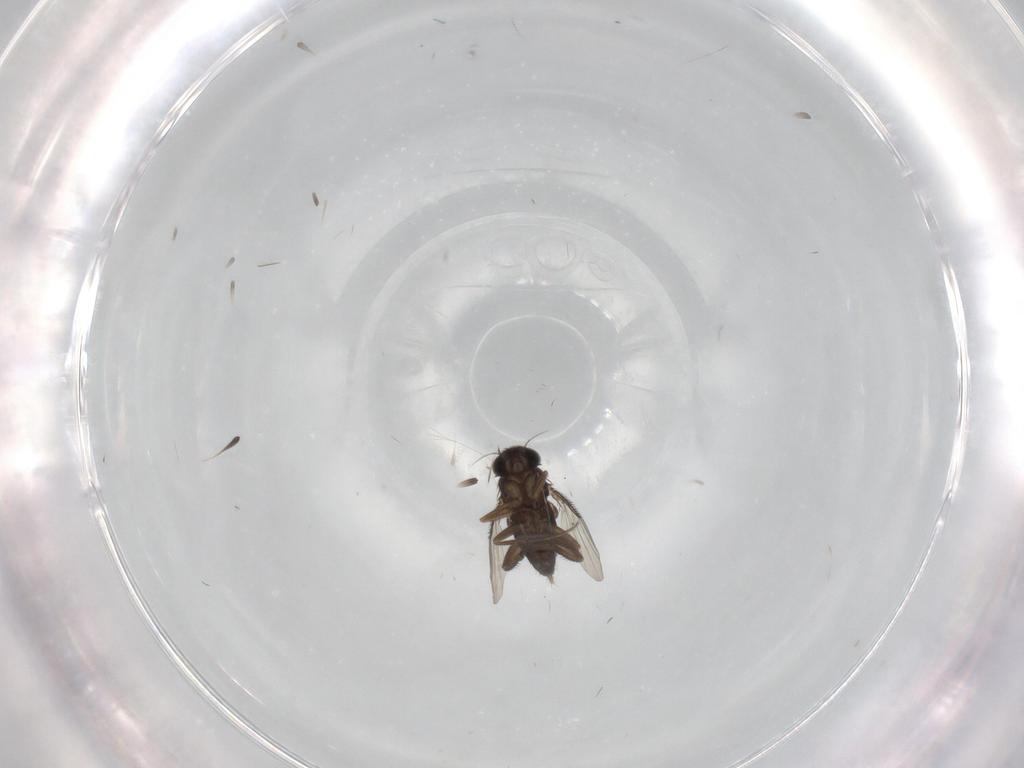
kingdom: Animalia
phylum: Arthropoda
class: Insecta
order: Diptera
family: Phoridae
